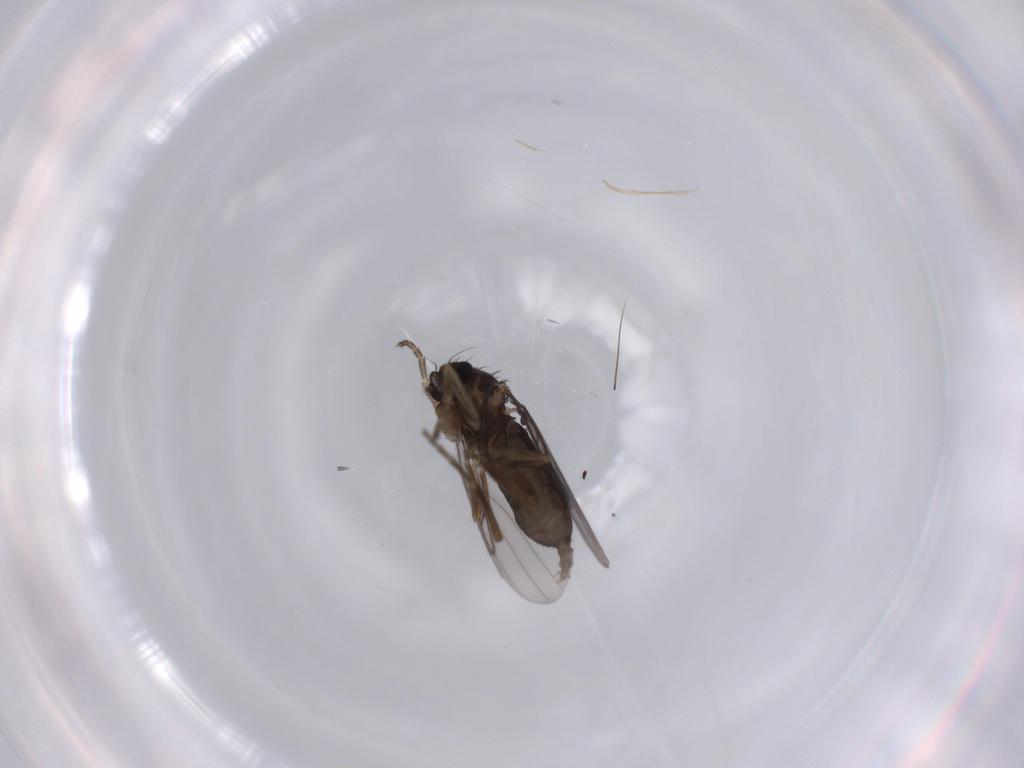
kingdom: Animalia
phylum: Arthropoda
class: Insecta
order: Diptera
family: Phoridae
